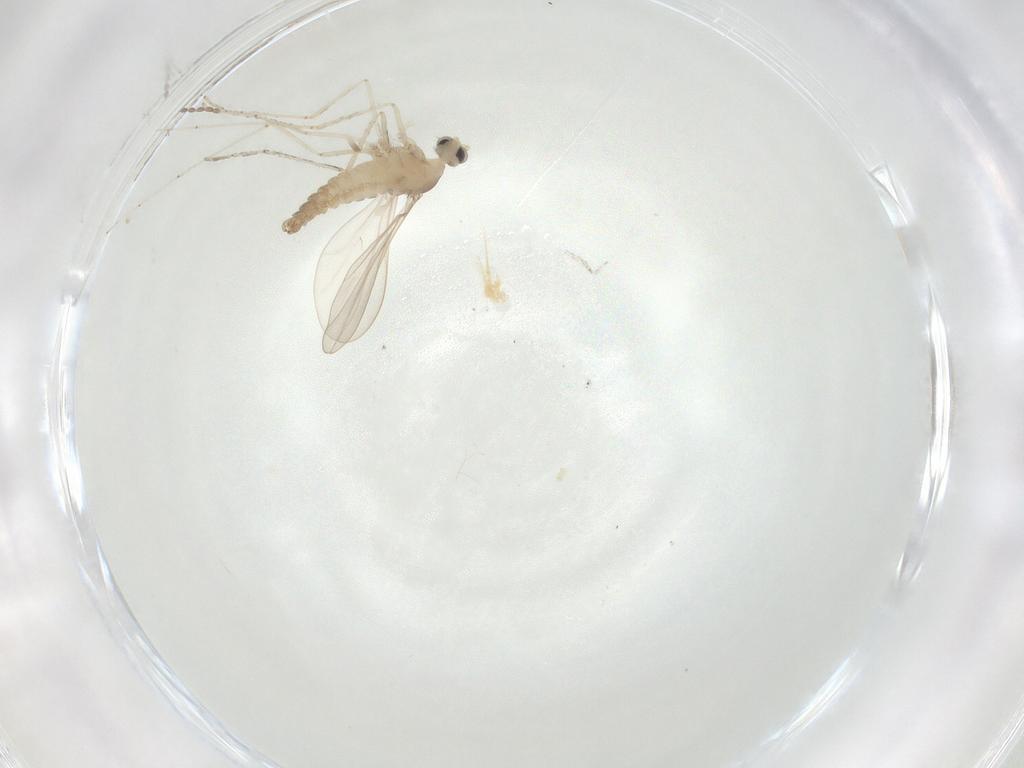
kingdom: Animalia
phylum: Arthropoda
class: Insecta
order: Diptera
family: Cecidomyiidae
